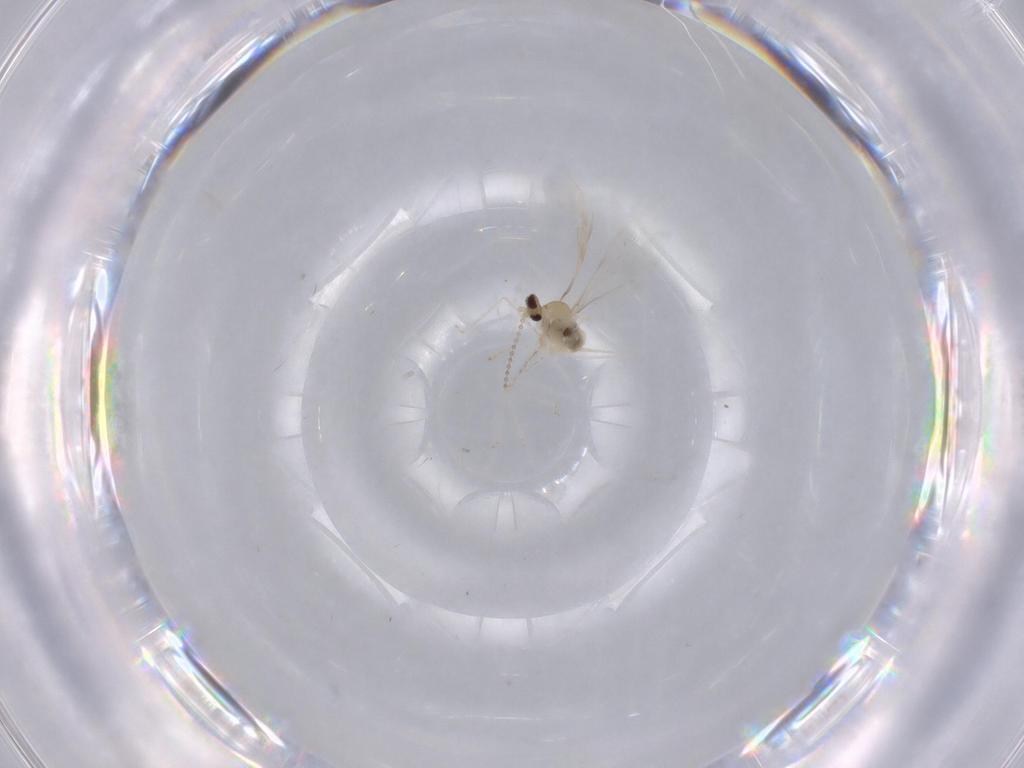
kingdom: Animalia
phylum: Arthropoda
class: Insecta
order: Diptera
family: Cecidomyiidae
